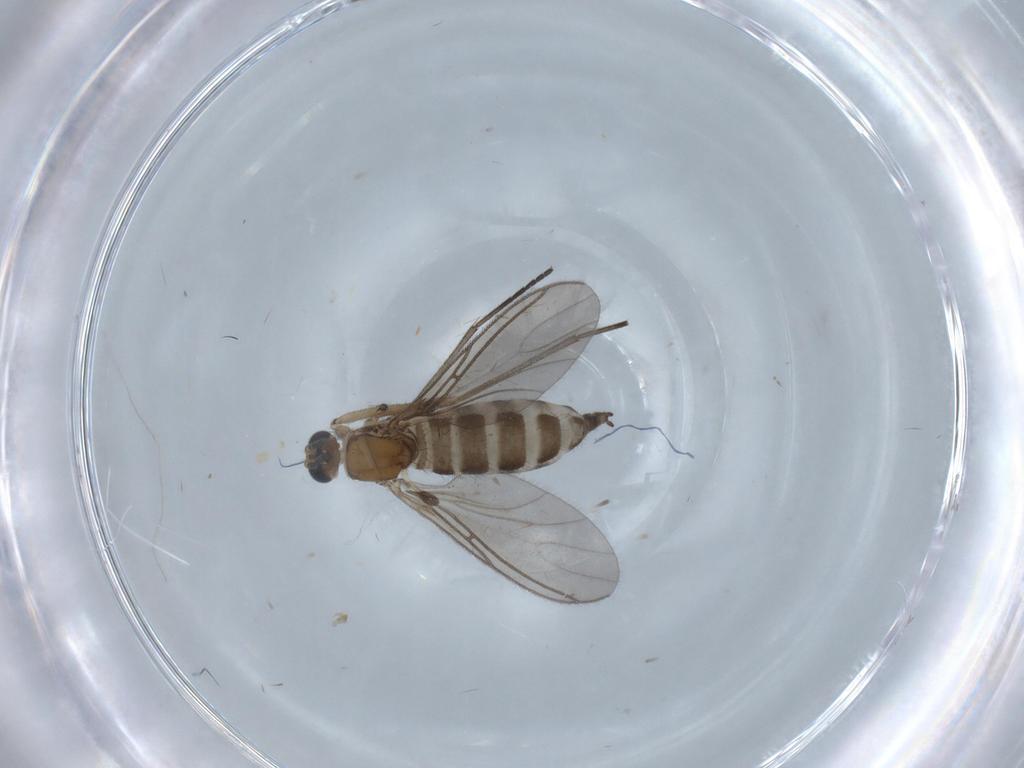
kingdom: Animalia
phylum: Arthropoda
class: Insecta
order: Diptera
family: Sciaridae
